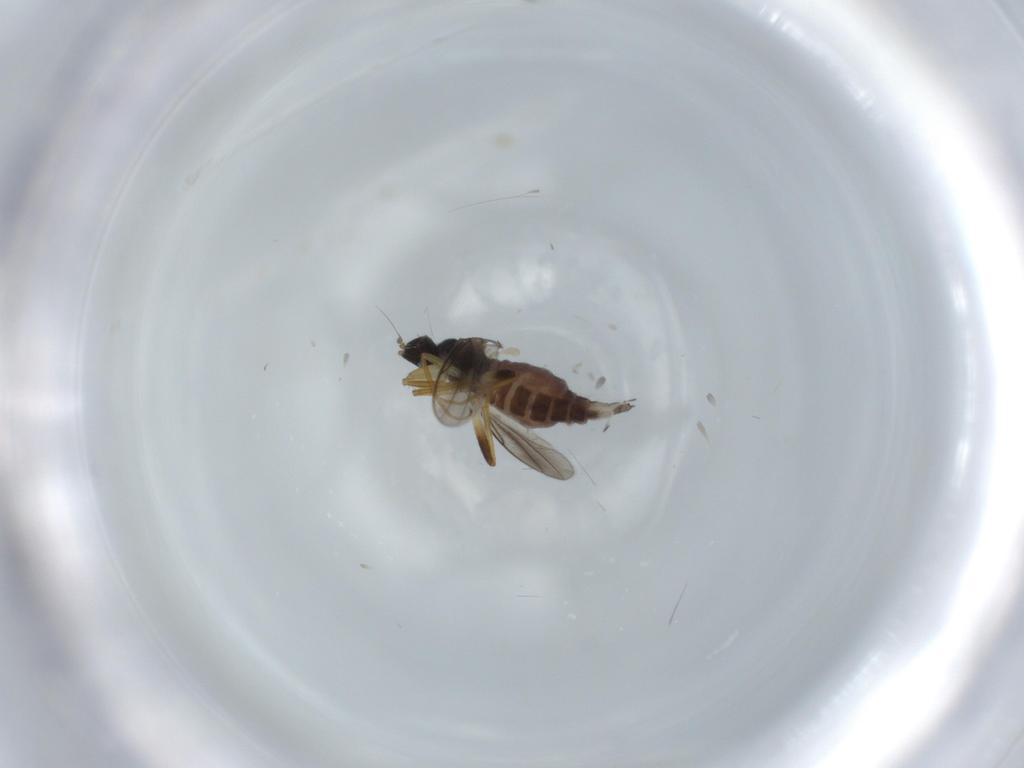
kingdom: Animalia
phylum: Arthropoda
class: Insecta
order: Diptera
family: Hybotidae
